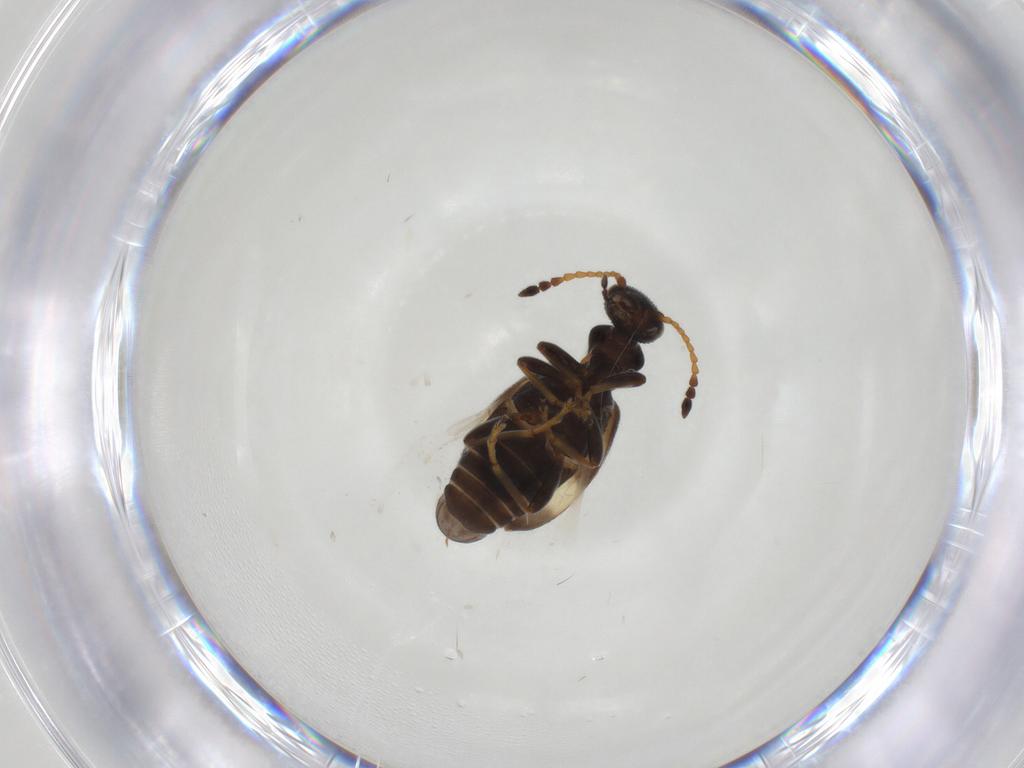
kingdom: Animalia
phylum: Arthropoda
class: Insecta
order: Coleoptera
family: Anthicidae
